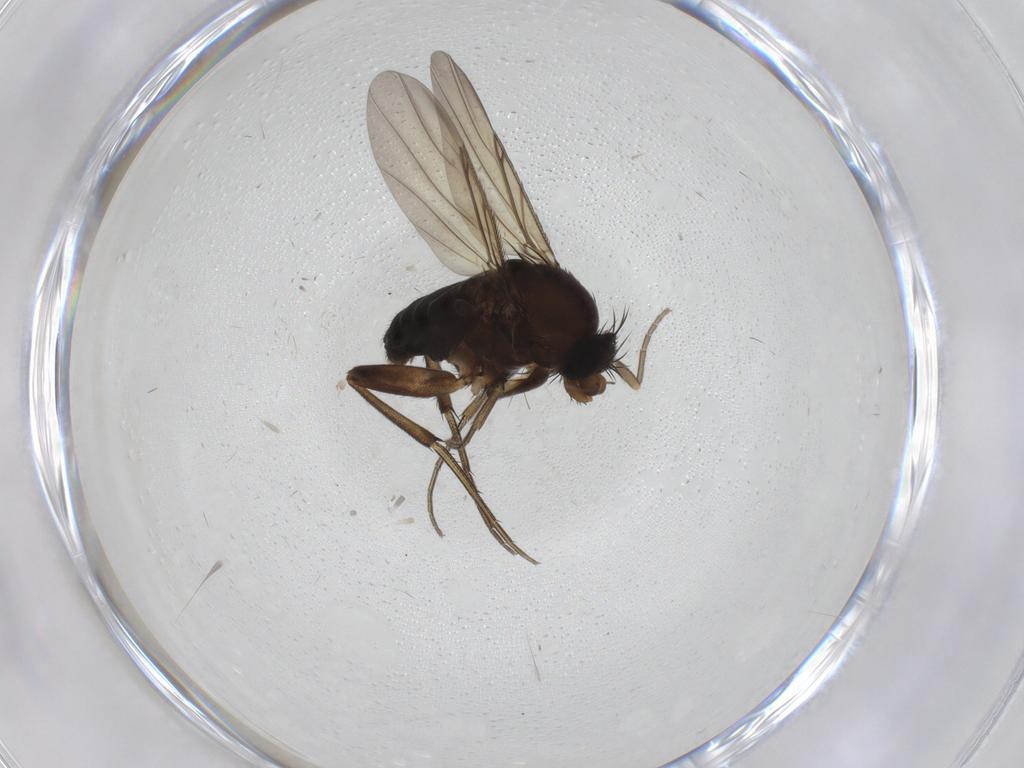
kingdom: Animalia
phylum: Arthropoda
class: Insecta
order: Diptera
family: Phoridae
